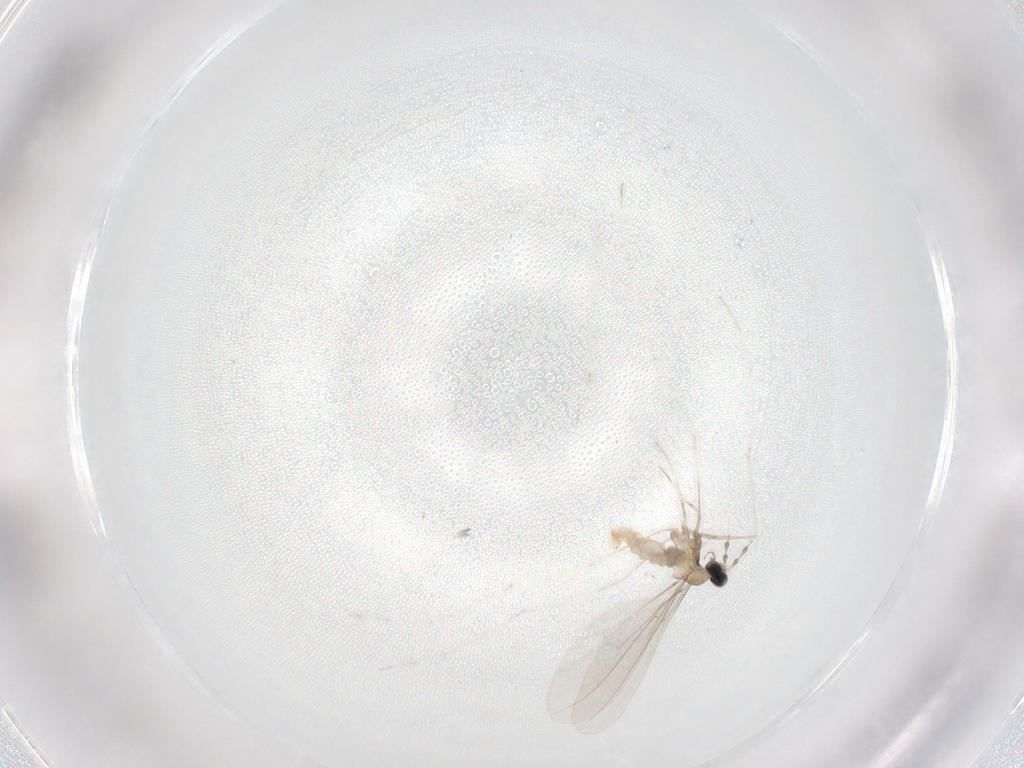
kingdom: Animalia
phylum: Arthropoda
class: Insecta
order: Diptera
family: Cecidomyiidae
